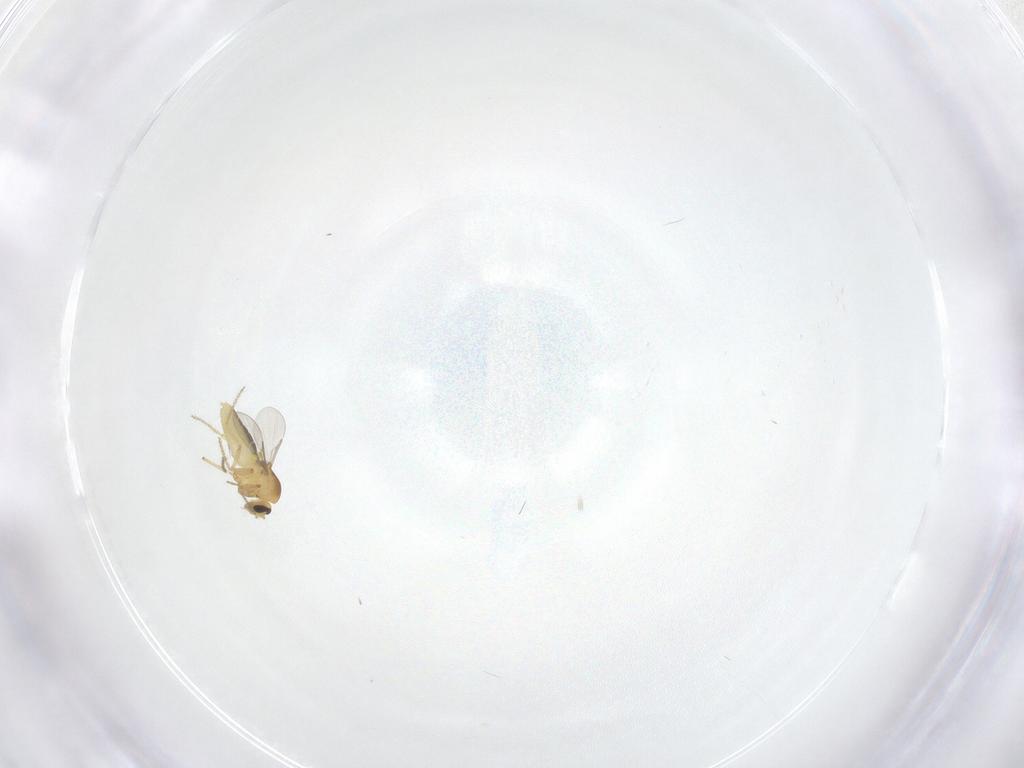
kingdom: Animalia
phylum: Arthropoda
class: Insecta
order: Diptera
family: Ceratopogonidae
